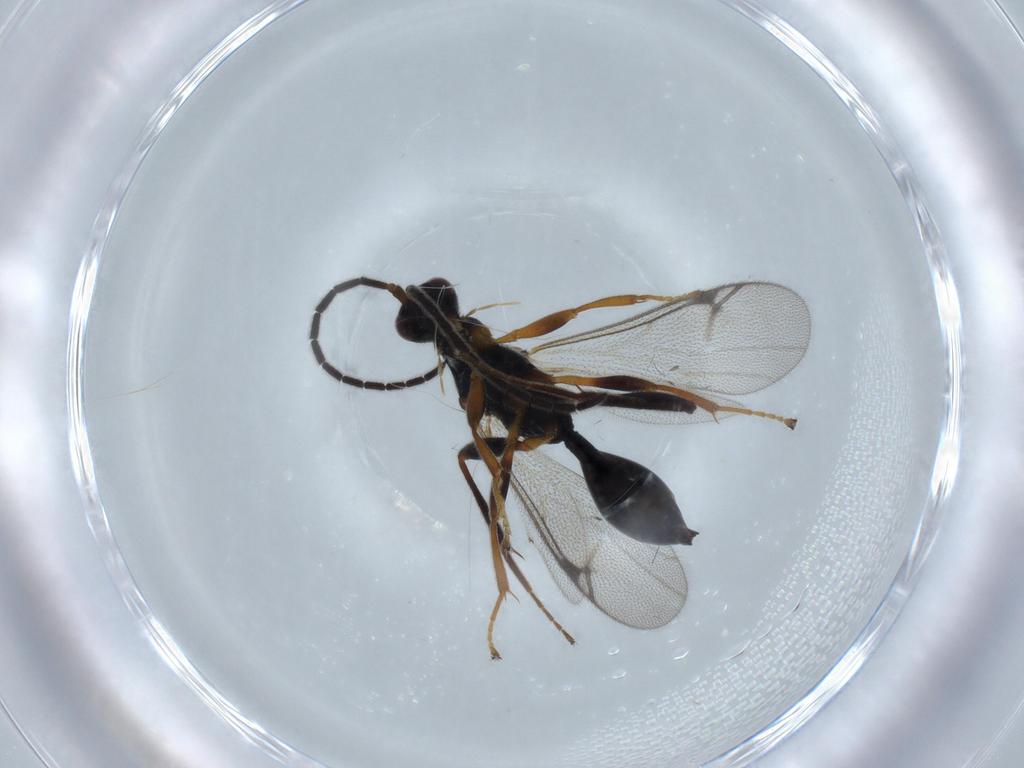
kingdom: Animalia
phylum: Arthropoda
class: Insecta
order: Hymenoptera
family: Proctotrupidae
